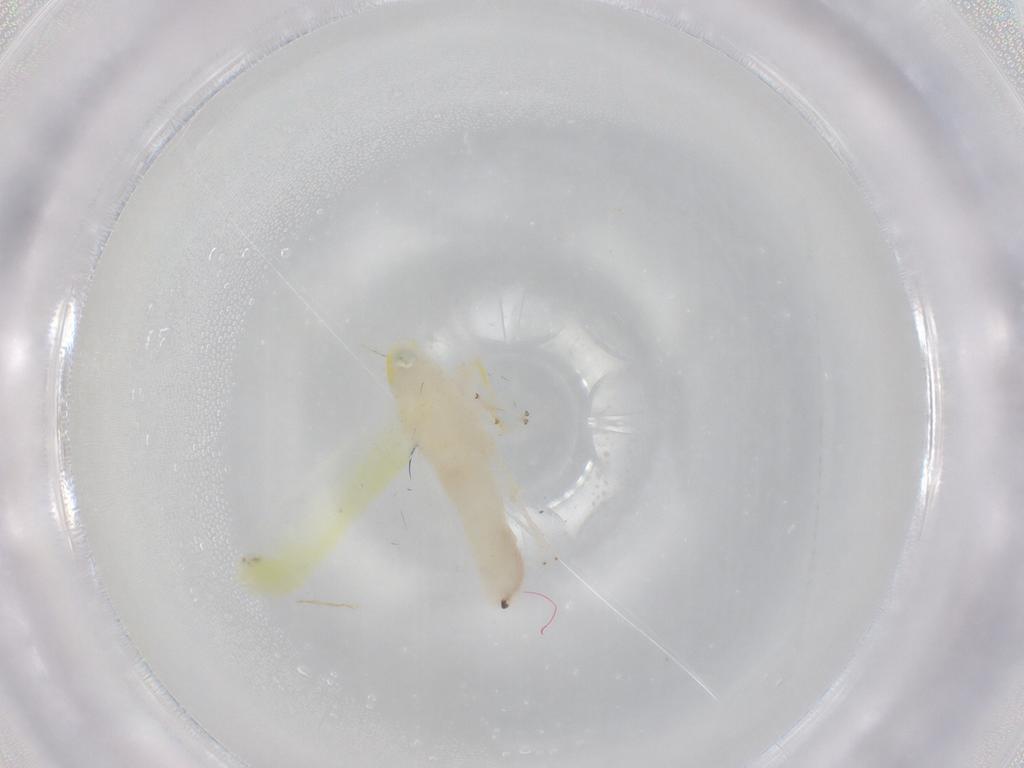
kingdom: Animalia
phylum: Arthropoda
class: Insecta
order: Hemiptera
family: Cicadellidae
